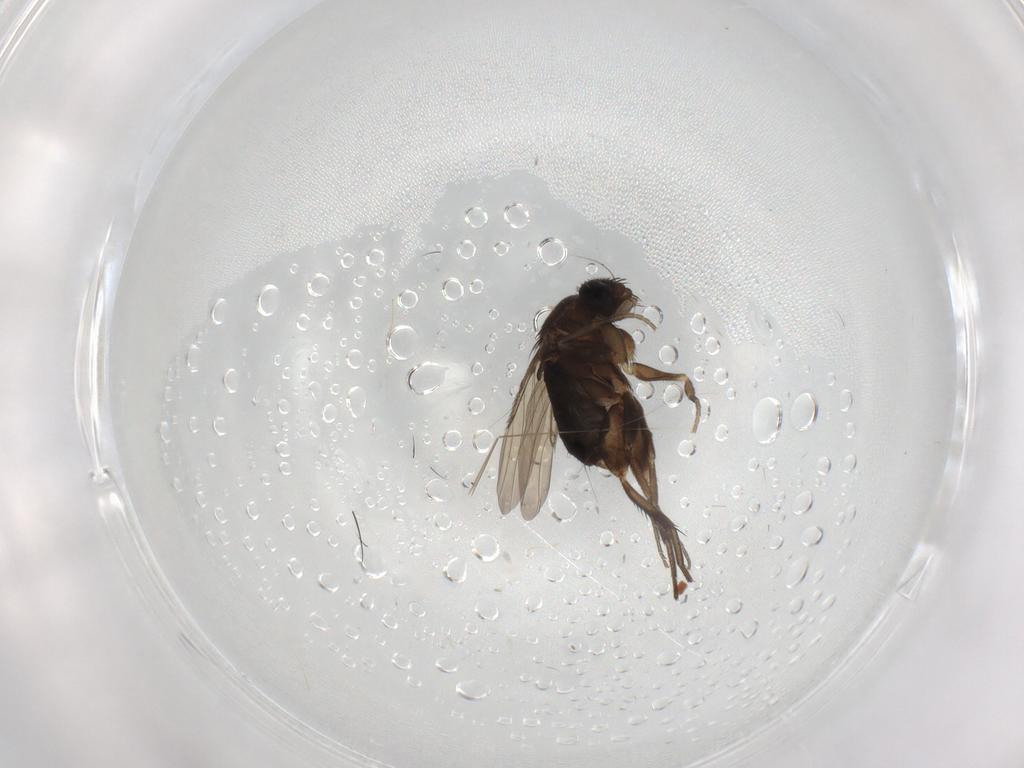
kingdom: Animalia
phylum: Arthropoda
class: Insecta
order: Diptera
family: Phoridae
